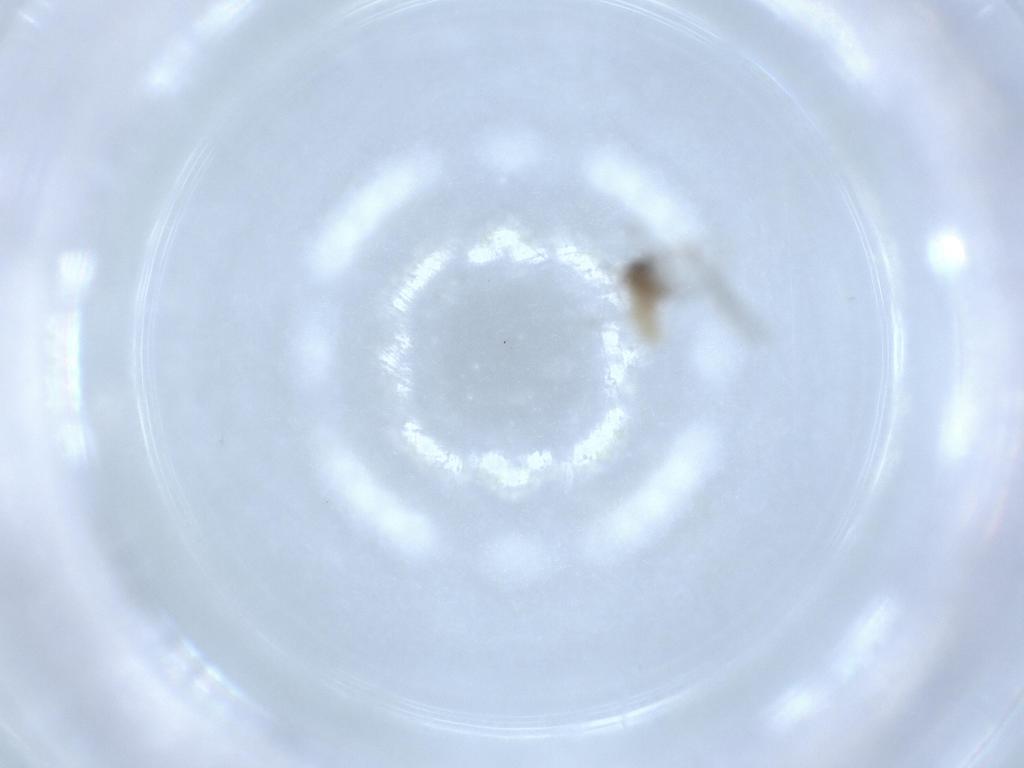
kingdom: Animalia
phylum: Arthropoda
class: Insecta
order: Diptera
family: Cecidomyiidae
